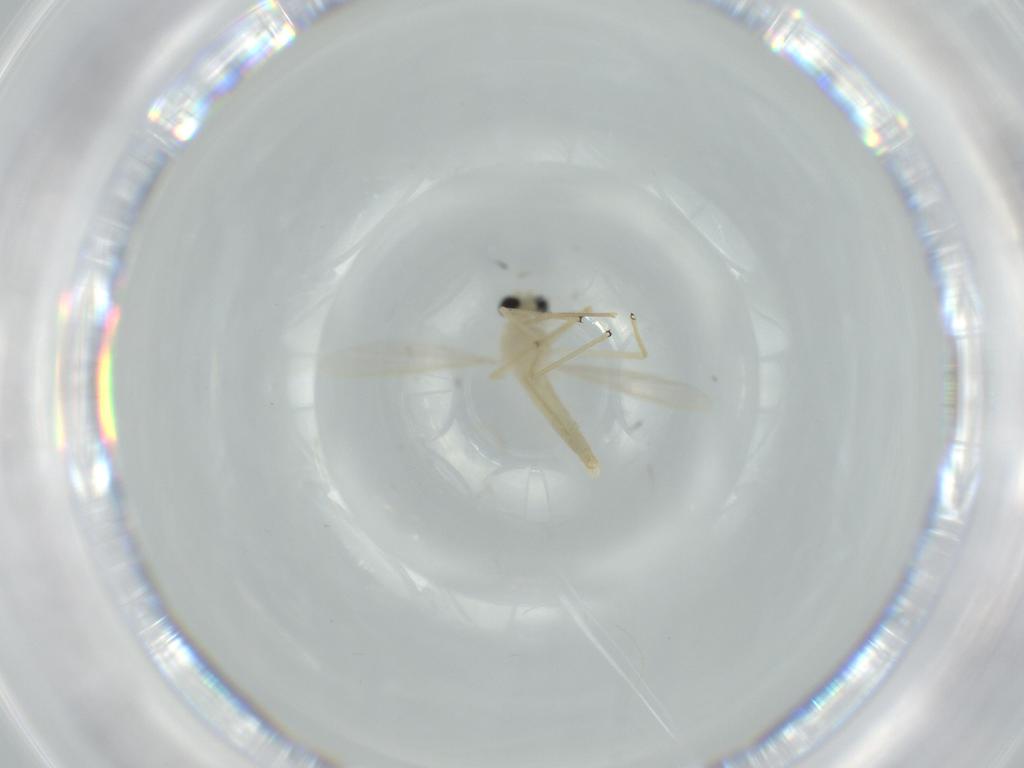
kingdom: Animalia
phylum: Arthropoda
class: Insecta
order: Diptera
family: Chironomidae
